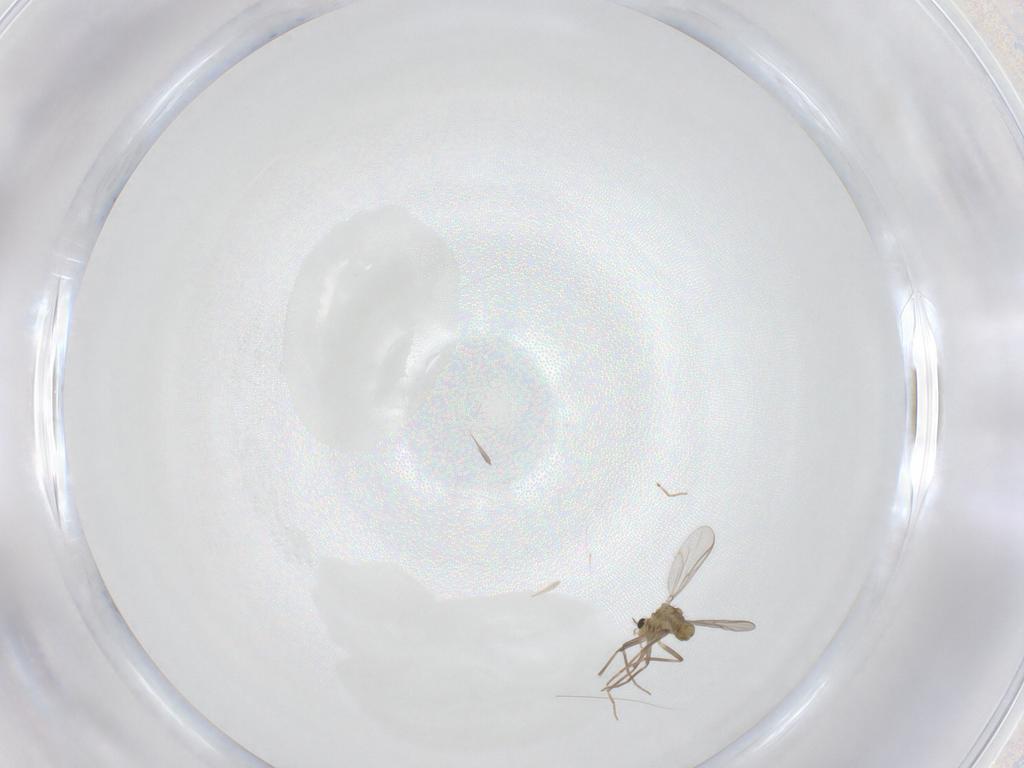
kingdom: Animalia
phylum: Arthropoda
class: Insecta
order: Diptera
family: Chironomidae
